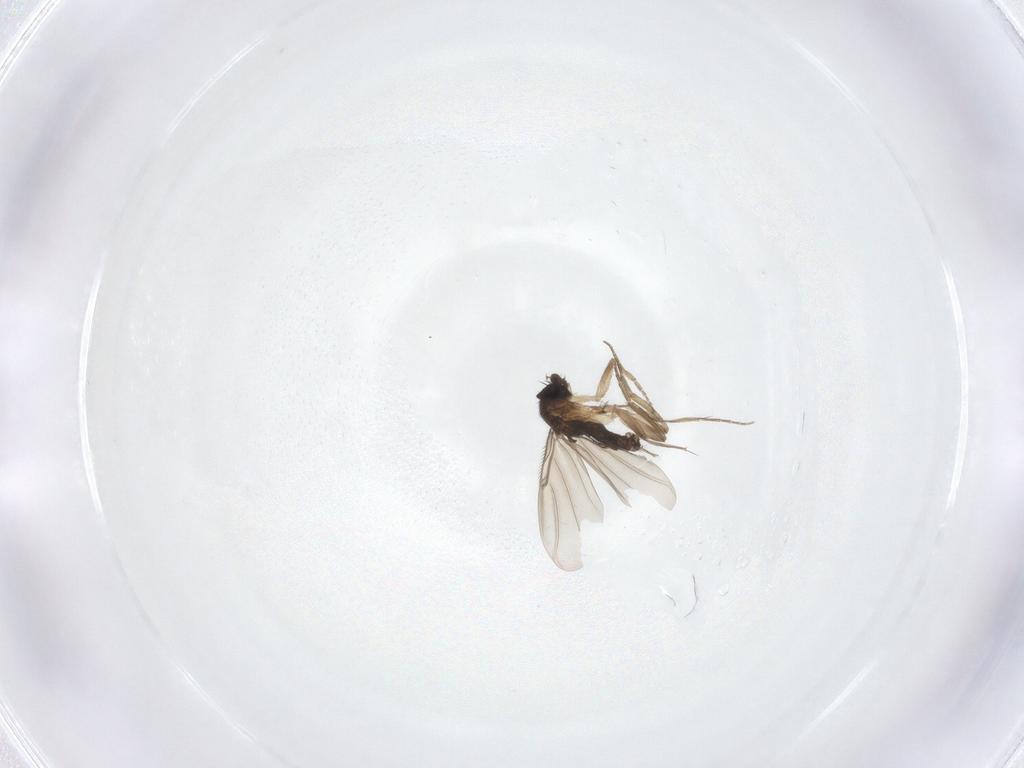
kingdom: Animalia
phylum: Arthropoda
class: Insecta
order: Diptera
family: Phoridae
